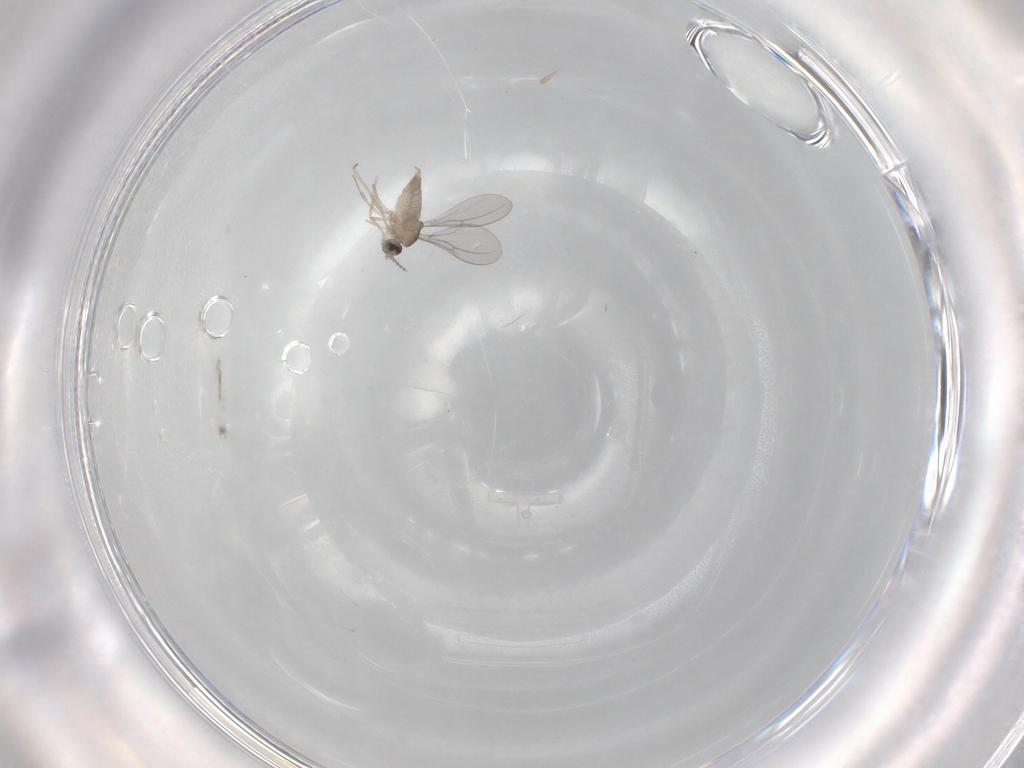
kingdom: Animalia
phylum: Arthropoda
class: Insecta
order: Diptera
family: Cecidomyiidae
